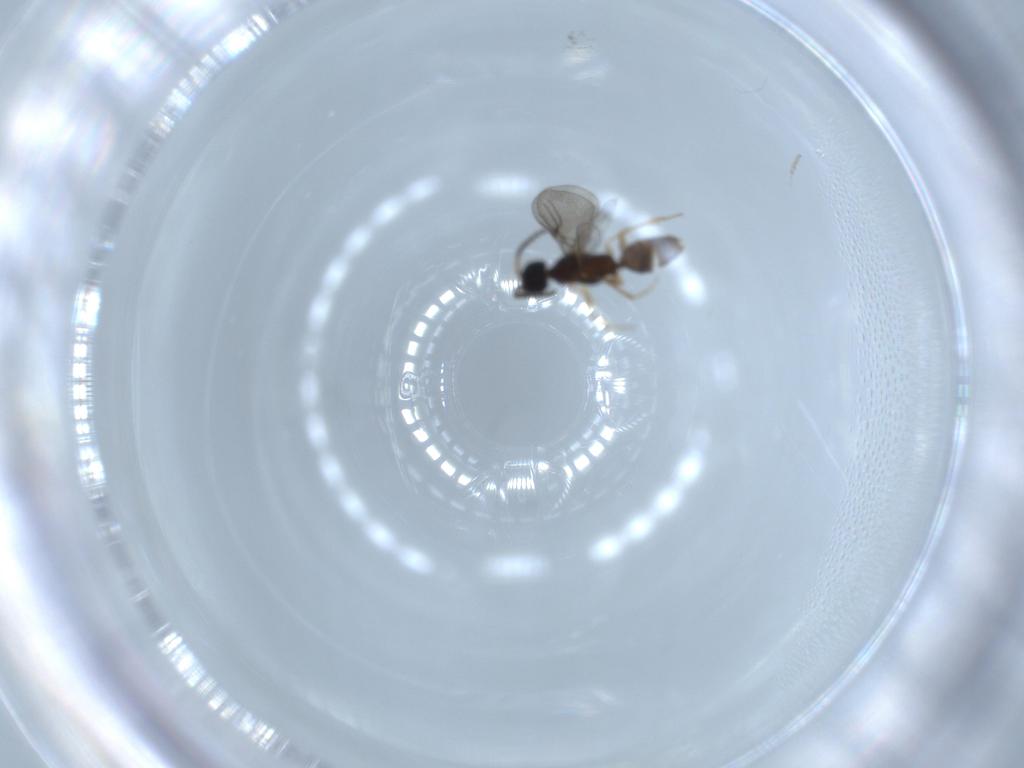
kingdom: Animalia
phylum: Arthropoda
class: Insecta
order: Hymenoptera
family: Bethylidae
